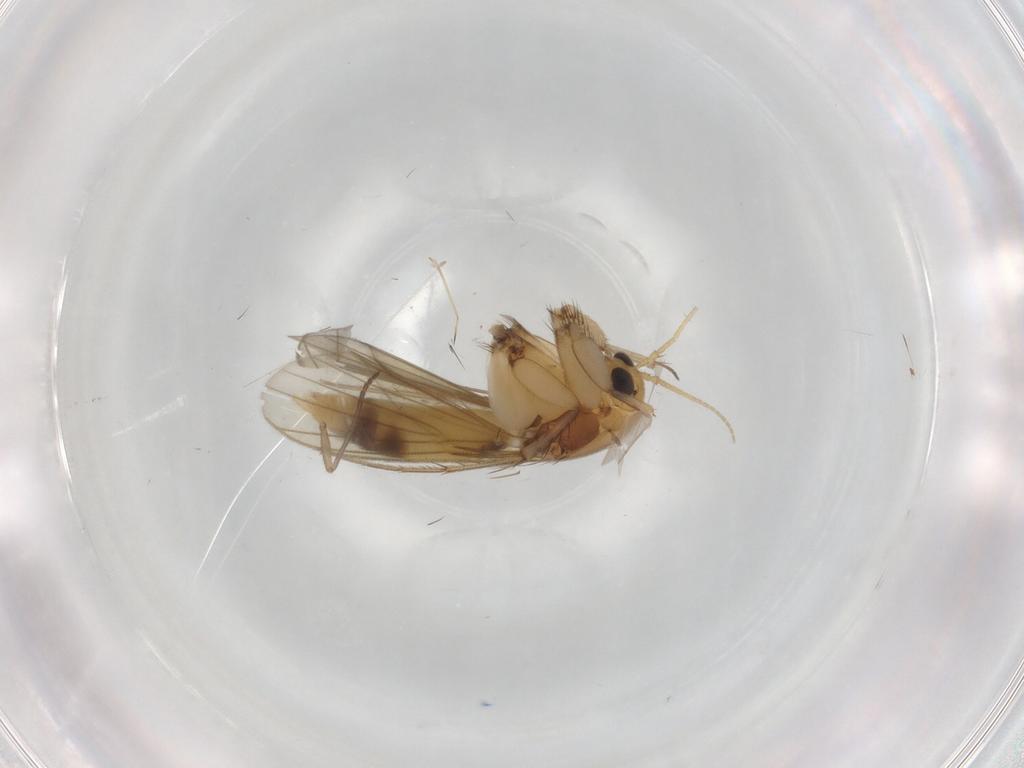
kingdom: Animalia
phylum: Arthropoda
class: Insecta
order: Diptera
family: Mycetophilidae
